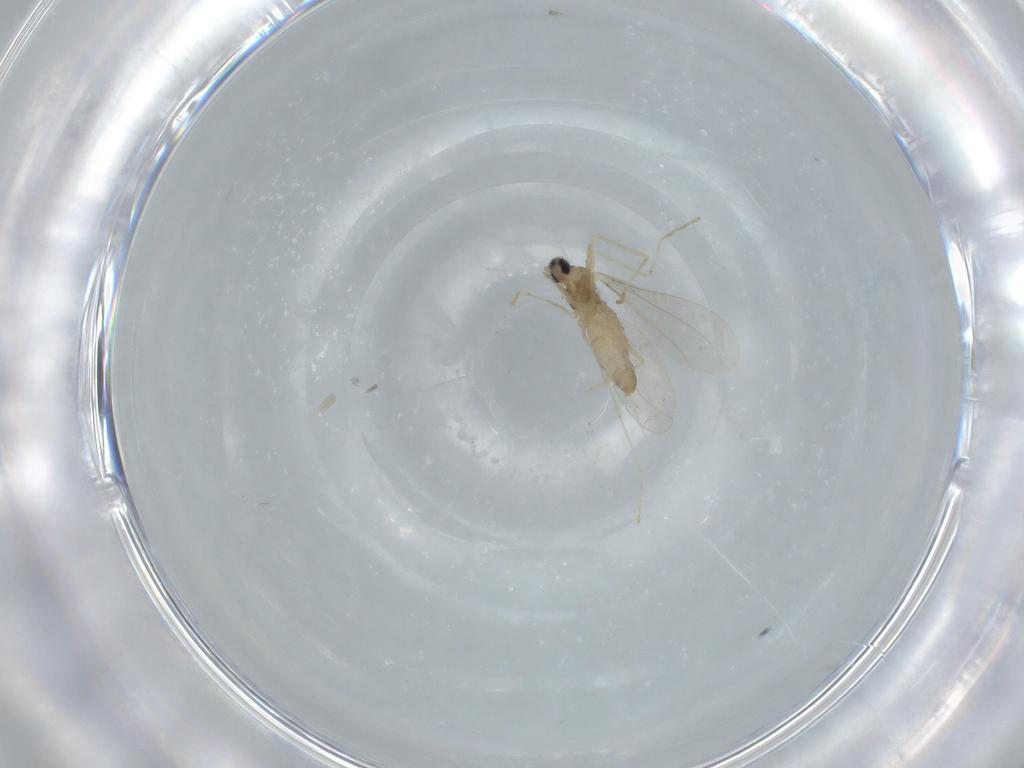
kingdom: Animalia
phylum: Arthropoda
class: Insecta
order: Diptera
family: Cecidomyiidae
